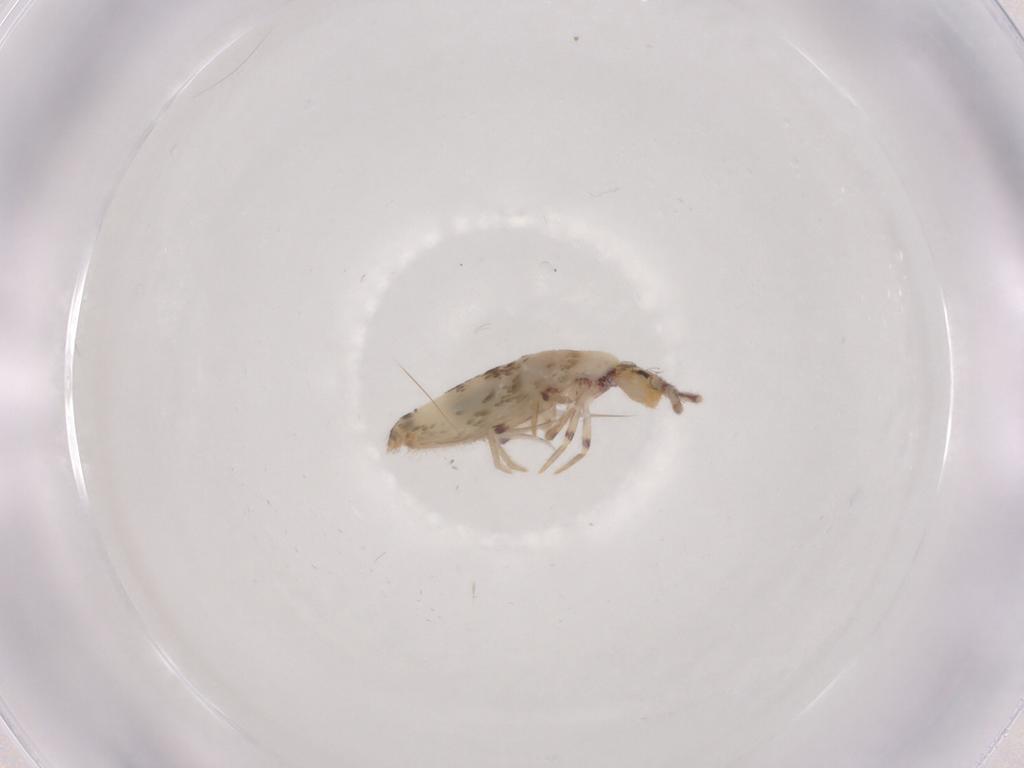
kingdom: Animalia
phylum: Arthropoda
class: Collembola
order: Entomobryomorpha
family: Entomobryidae
